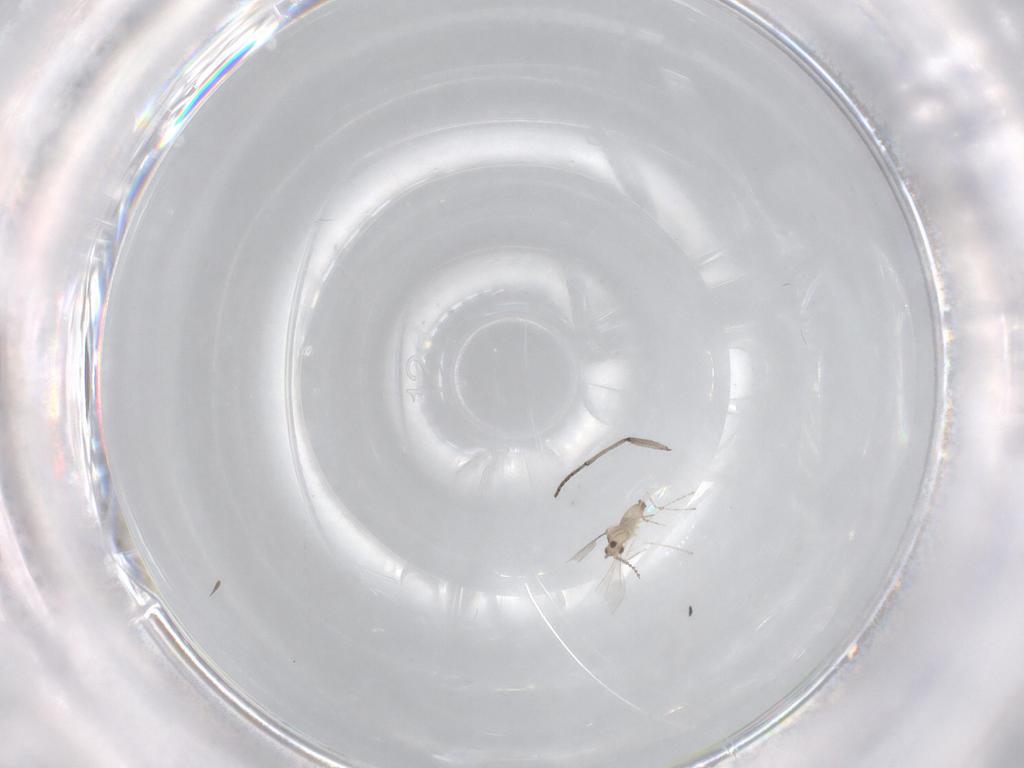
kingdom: Animalia
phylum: Arthropoda
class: Insecta
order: Diptera
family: Sciaridae
